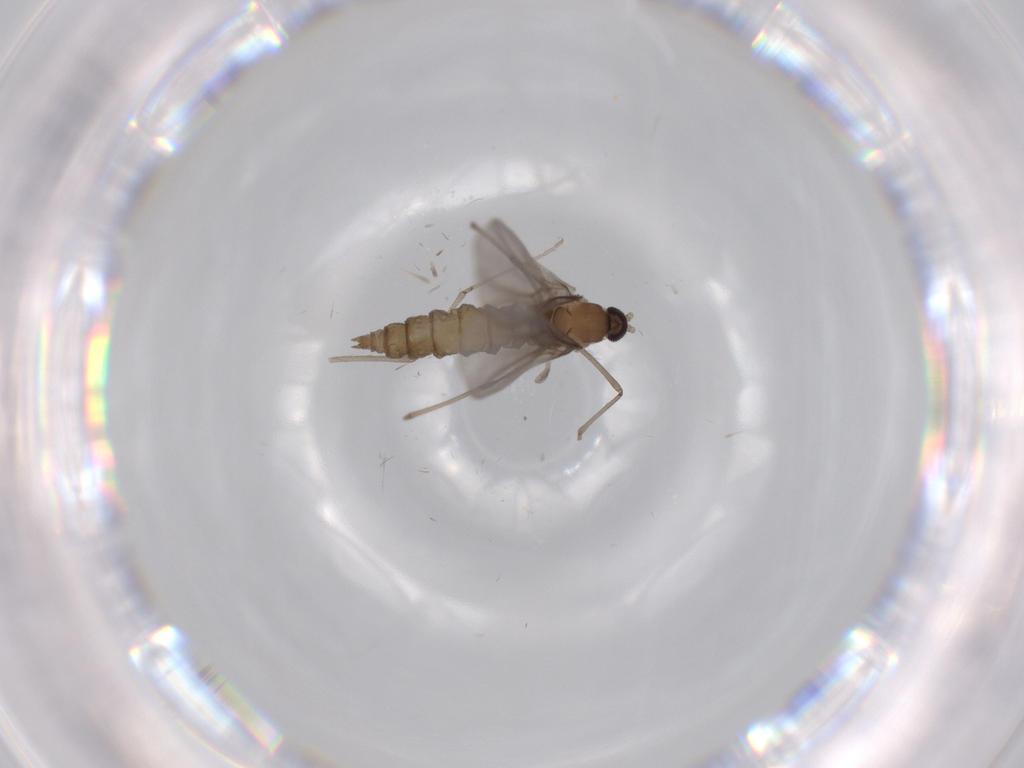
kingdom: Animalia
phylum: Arthropoda
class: Insecta
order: Diptera
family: Cecidomyiidae
